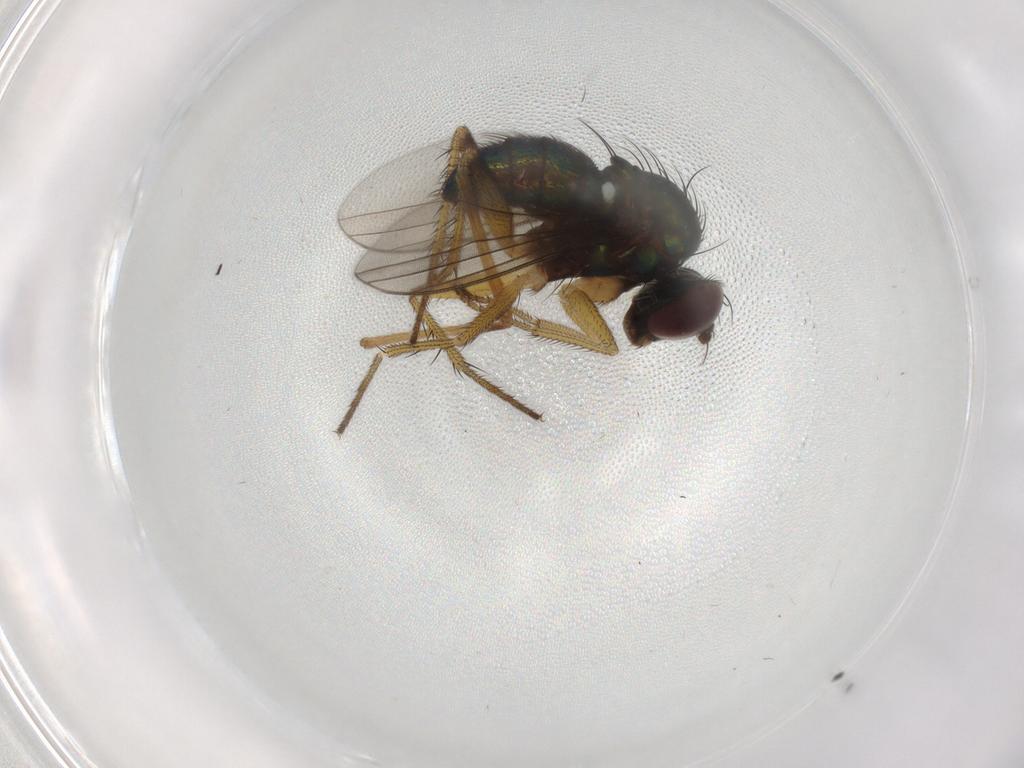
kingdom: Animalia
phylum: Arthropoda
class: Insecta
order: Diptera
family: Dolichopodidae
